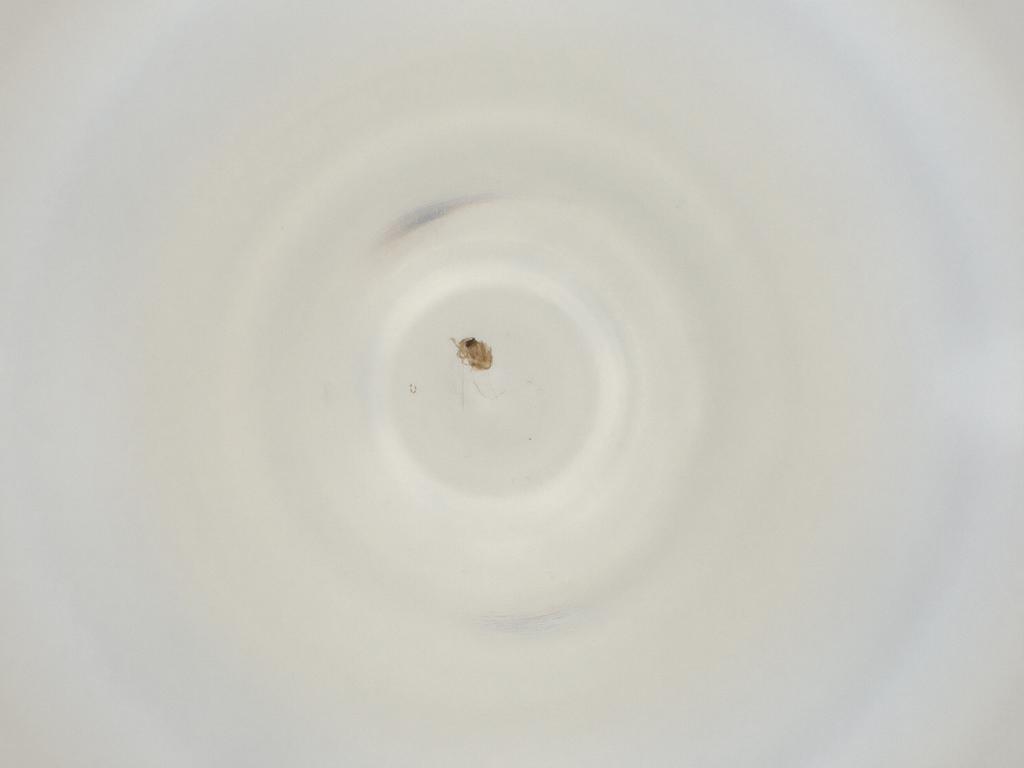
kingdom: Animalia
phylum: Arthropoda
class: Insecta
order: Diptera
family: Cecidomyiidae
